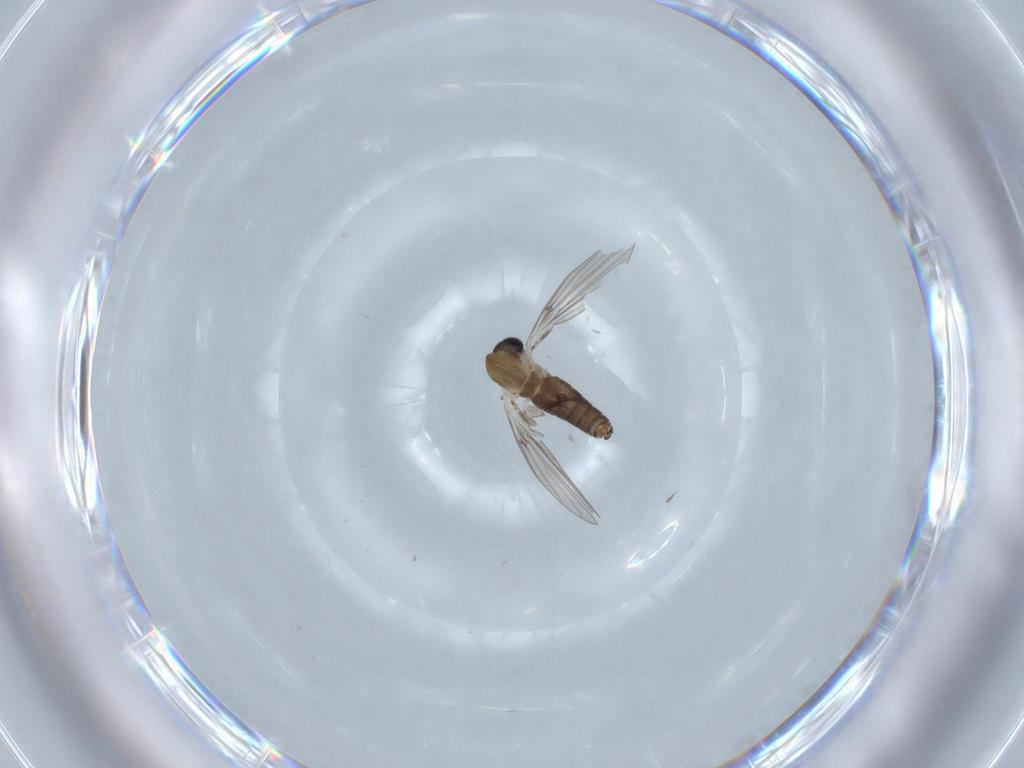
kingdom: Animalia
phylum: Arthropoda
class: Insecta
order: Diptera
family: Psychodidae
